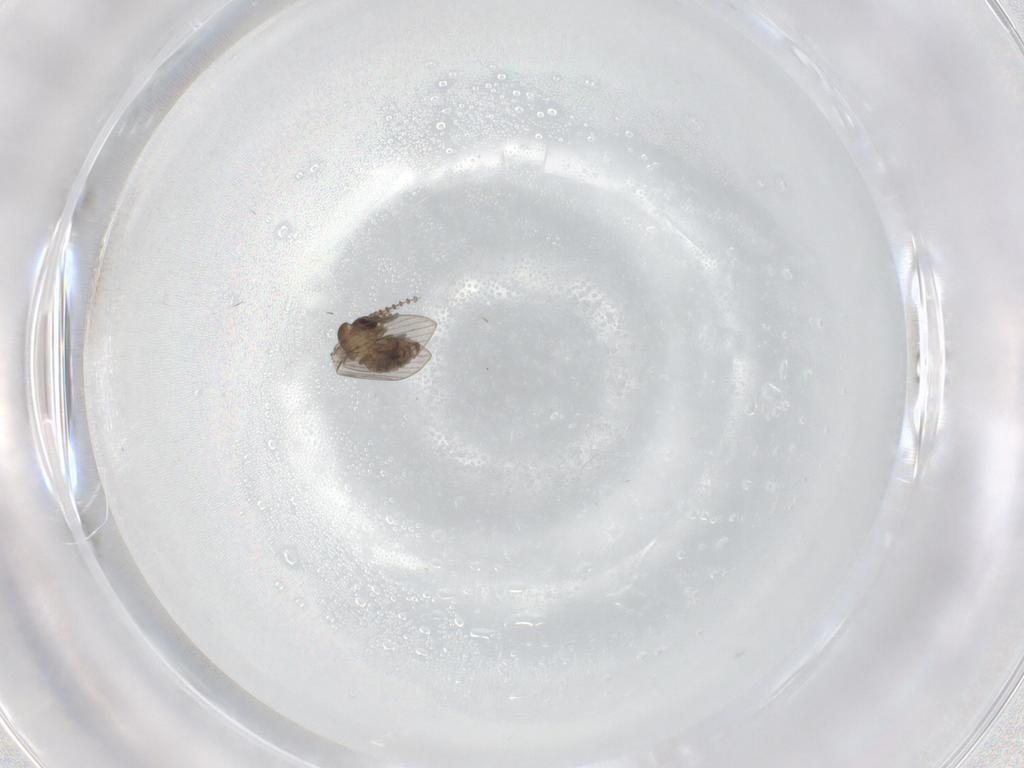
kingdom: Animalia
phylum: Arthropoda
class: Insecta
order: Diptera
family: Psychodidae
